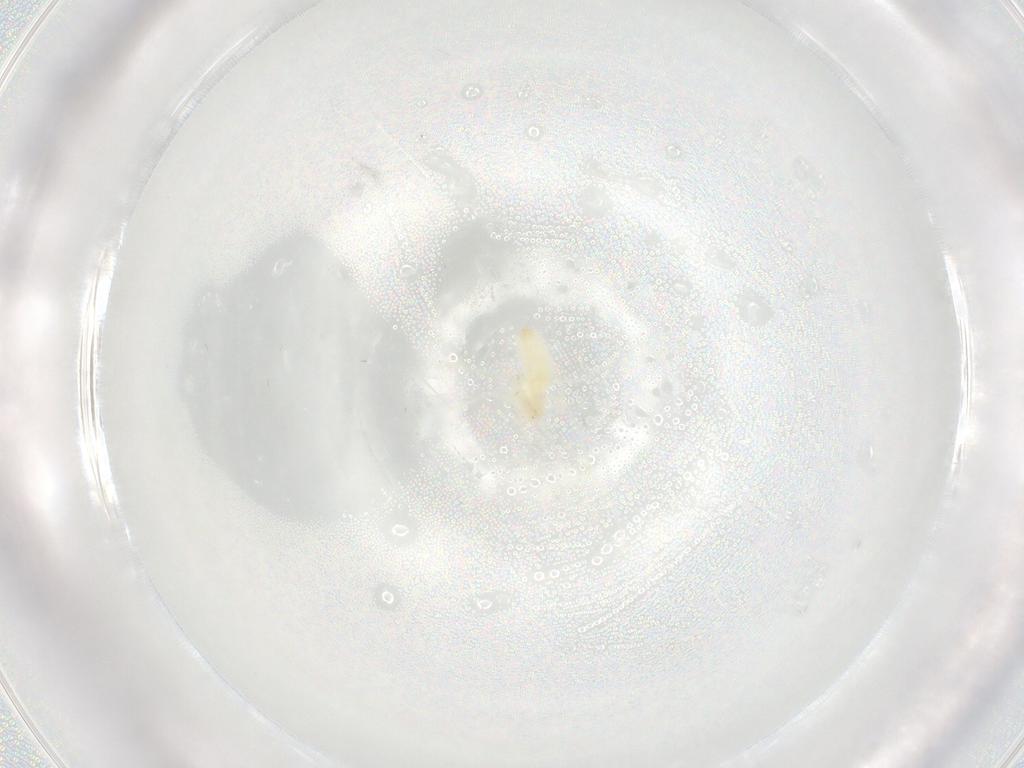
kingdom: Animalia
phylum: Arthropoda
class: Insecta
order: Diptera
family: Cecidomyiidae
